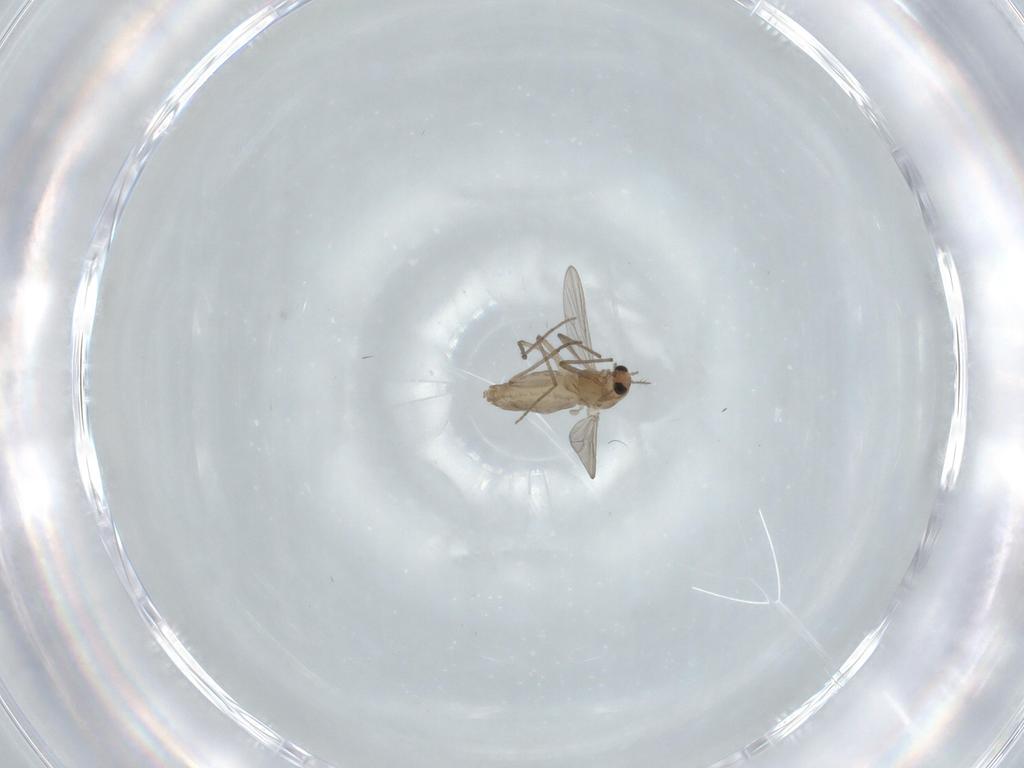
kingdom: Animalia
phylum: Arthropoda
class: Insecta
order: Diptera
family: Chironomidae
